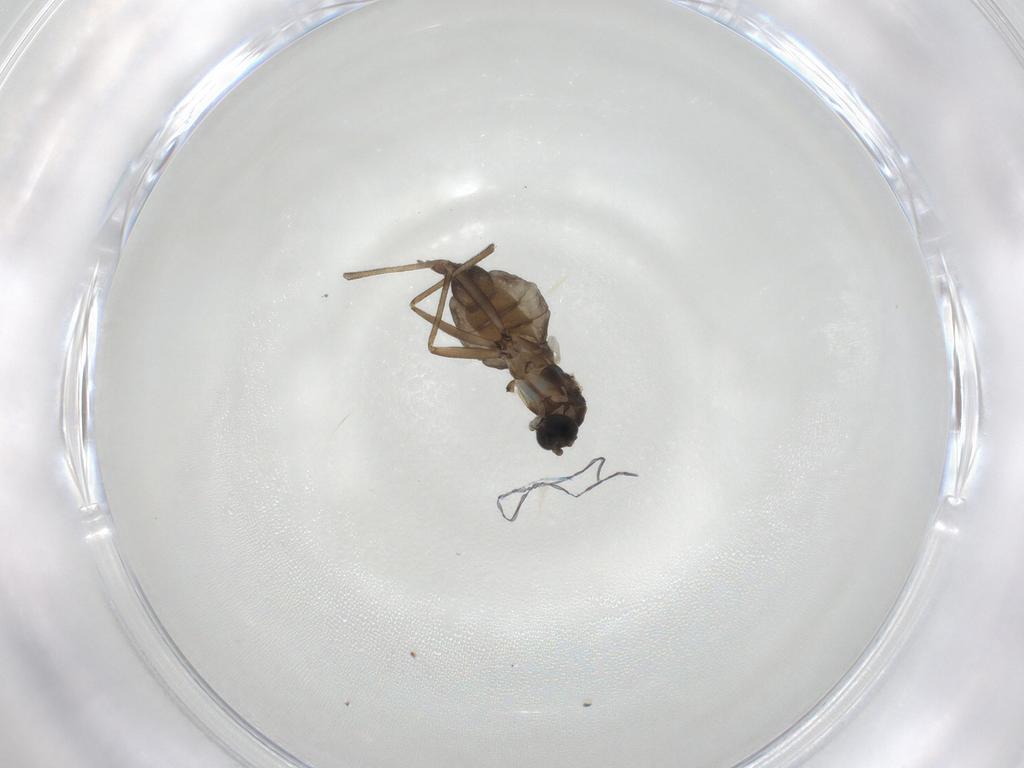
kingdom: Animalia
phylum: Arthropoda
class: Insecta
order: Diptera
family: Sciaridae
